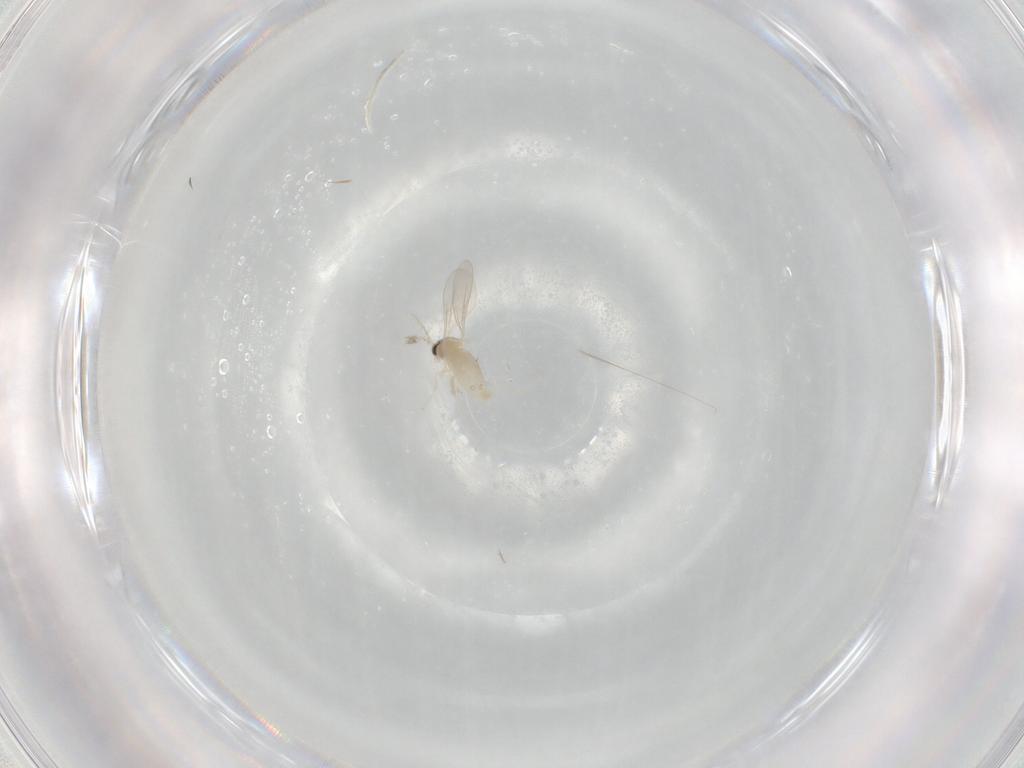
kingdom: Animalia
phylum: Arthropoda
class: Insecta
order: Diptera
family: Cecidomyiidae
